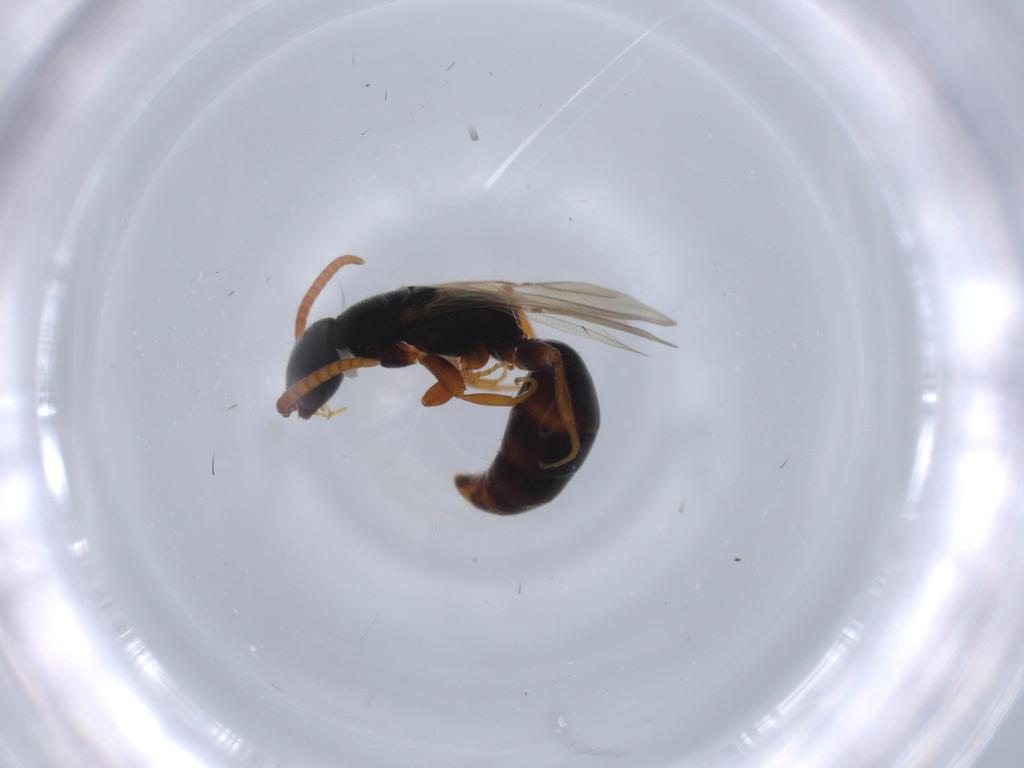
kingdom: Animalia
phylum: Arthropoda
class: Insecta
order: Hymenoptera
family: Bethylidae
